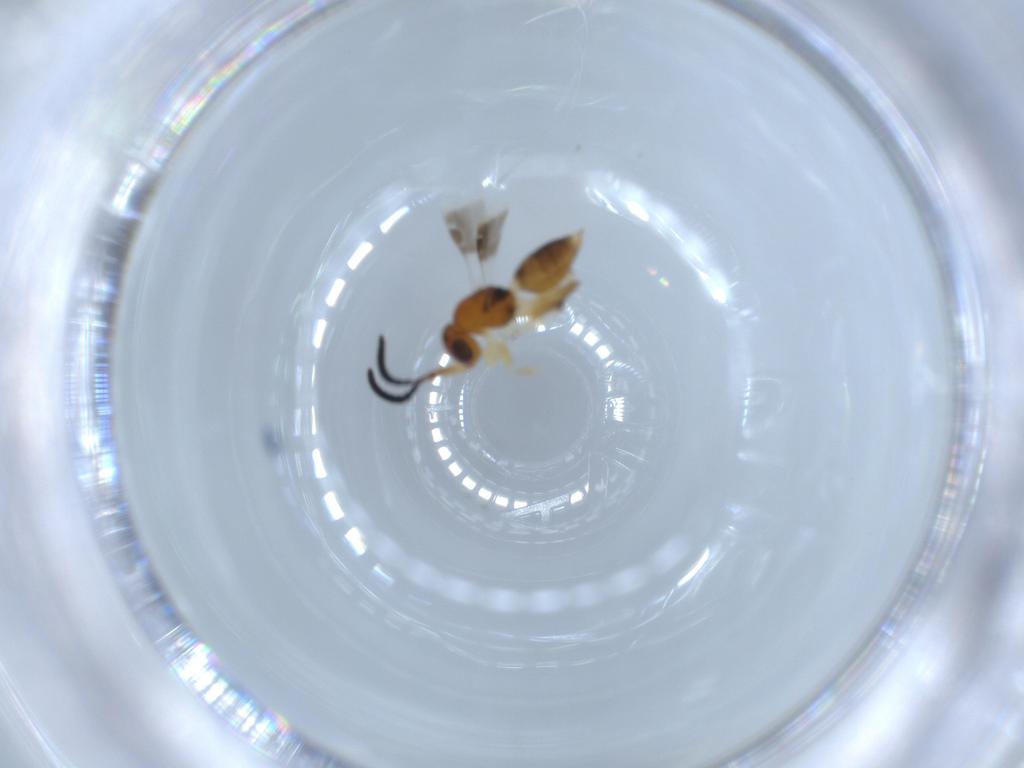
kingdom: Animalia
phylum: Arthropoda
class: Insecta
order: Hymenoptera
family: Megaspilidae
